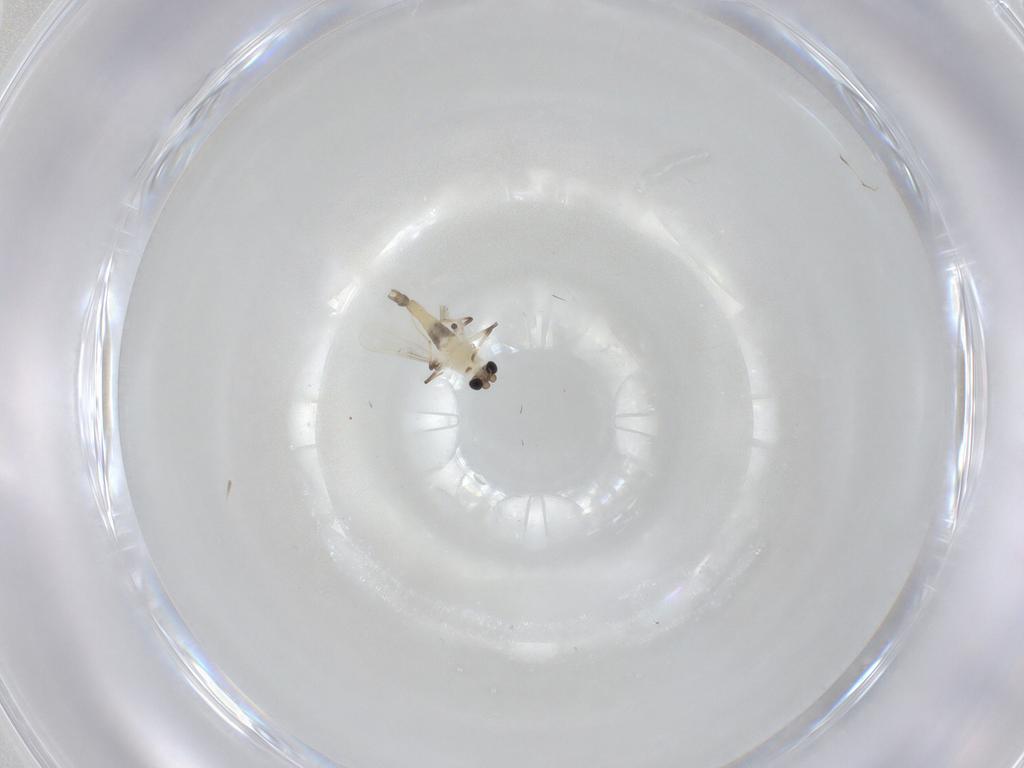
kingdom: Animalia
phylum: Arthropoda
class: Insecta
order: Diptera
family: Chironomidae
